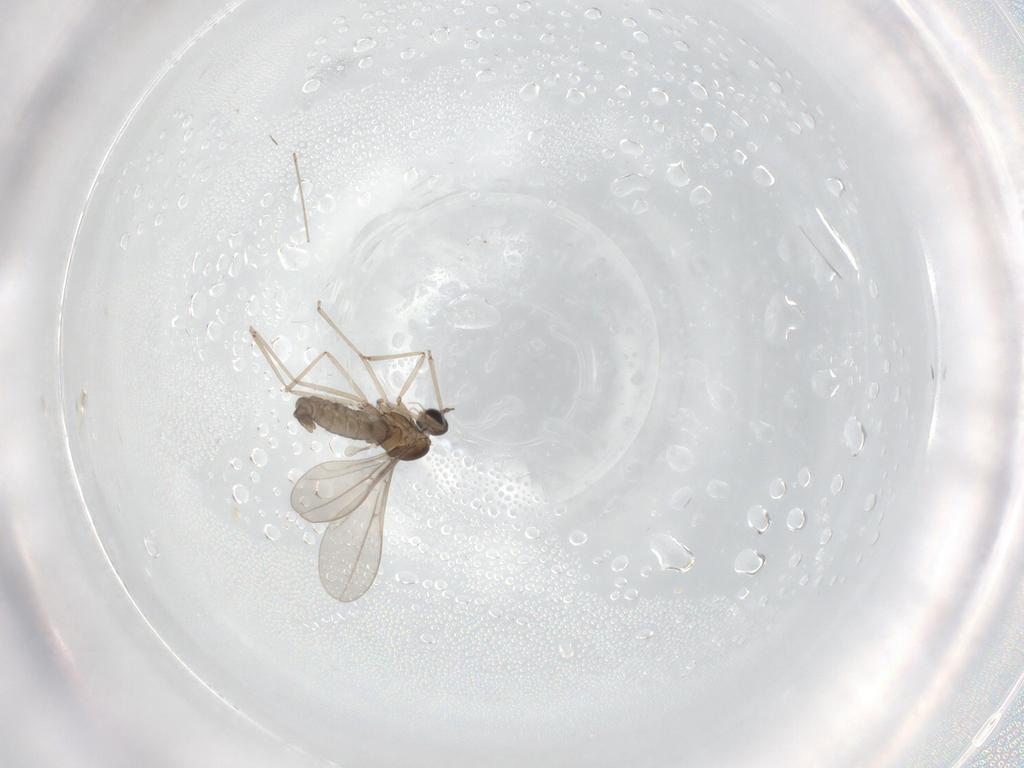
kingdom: Animalia
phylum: Arthropoda
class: Insecta
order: Diptera
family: Cecidomyiidae
